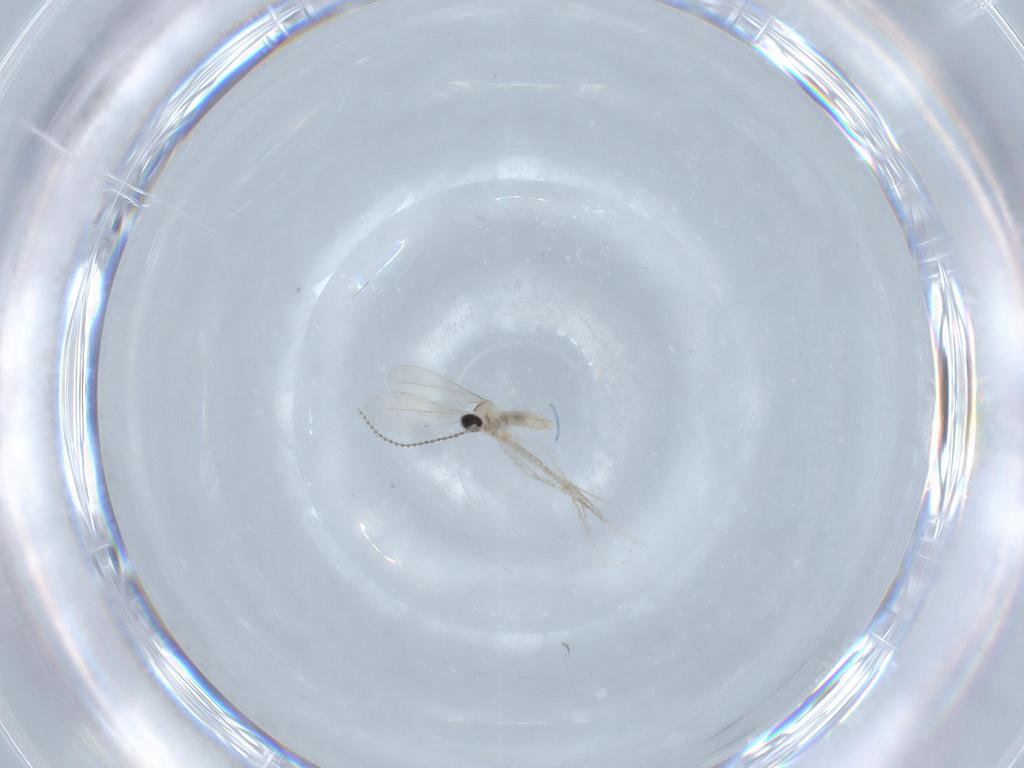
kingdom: Animalia
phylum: Arthropoda
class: Insecta
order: Diptera
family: Cecidomyiidae
